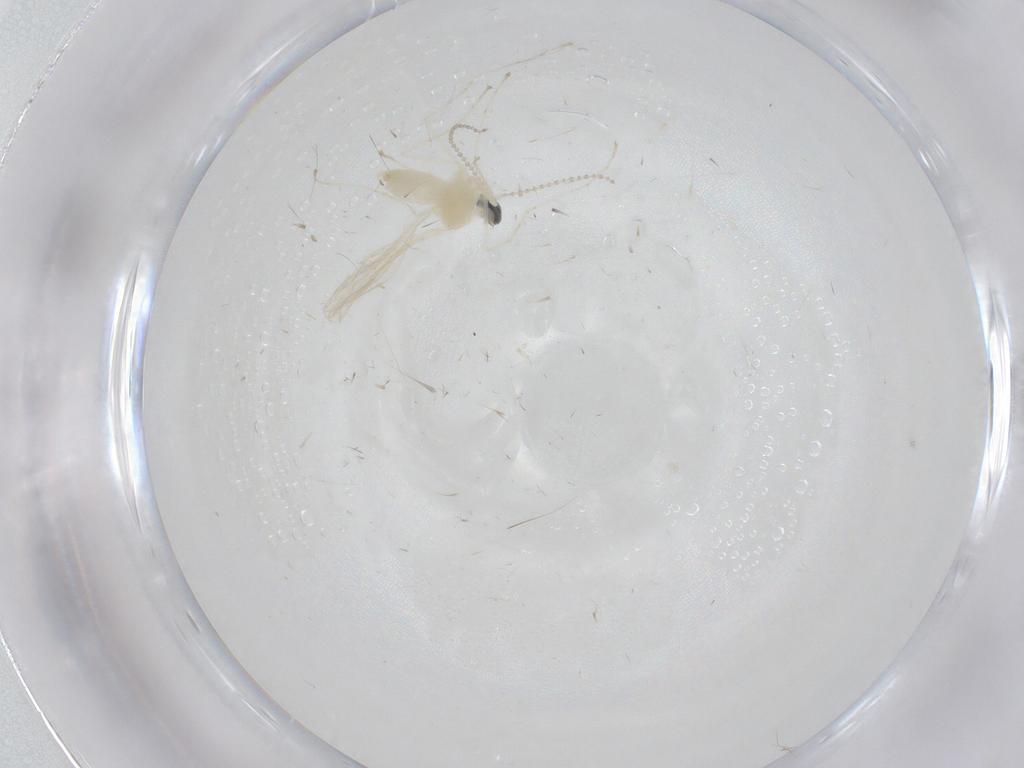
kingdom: Animalia
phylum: Arthropoda
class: Insecta
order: Diptera
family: Cecidomyiidae
